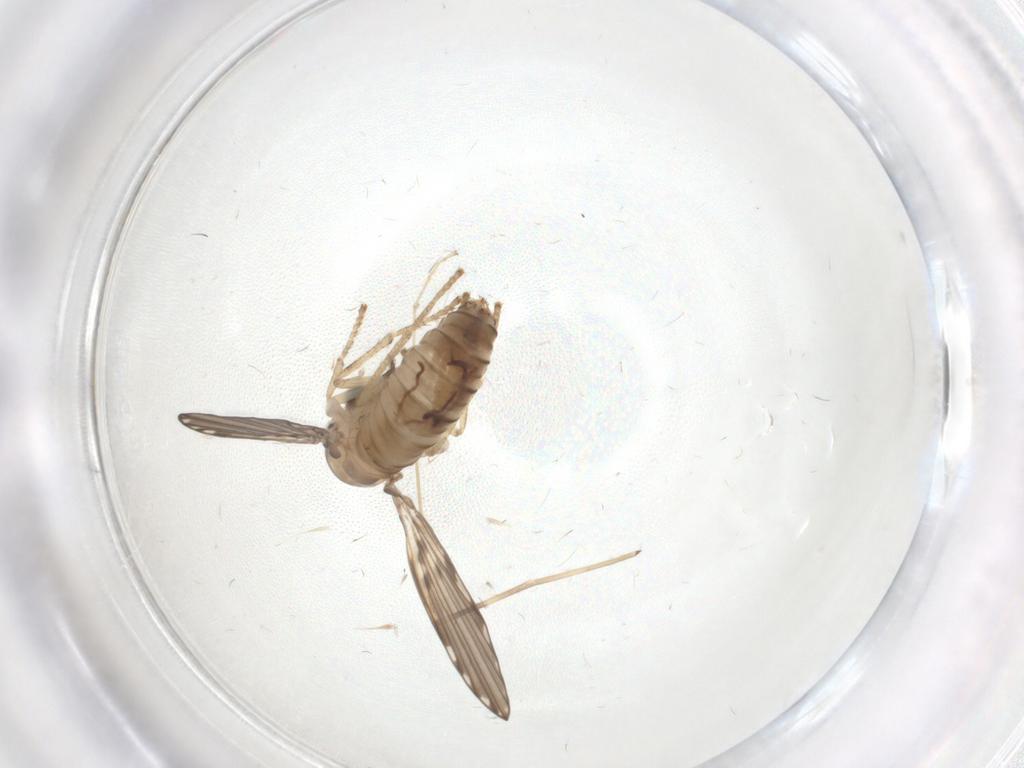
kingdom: Animalia
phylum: Arthropoda
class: Insecta
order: Diptera
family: Psychodidae
